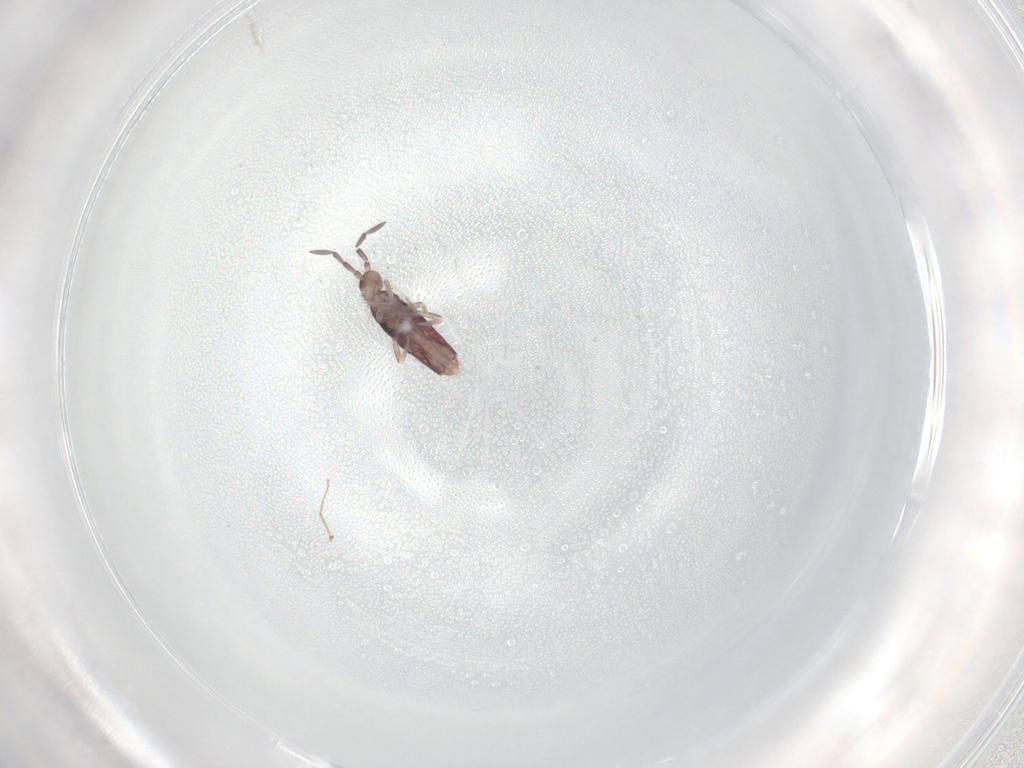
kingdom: Animalia
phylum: Arthropoda
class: Collembola
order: Entomobryomorpha
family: Entomobryidae
